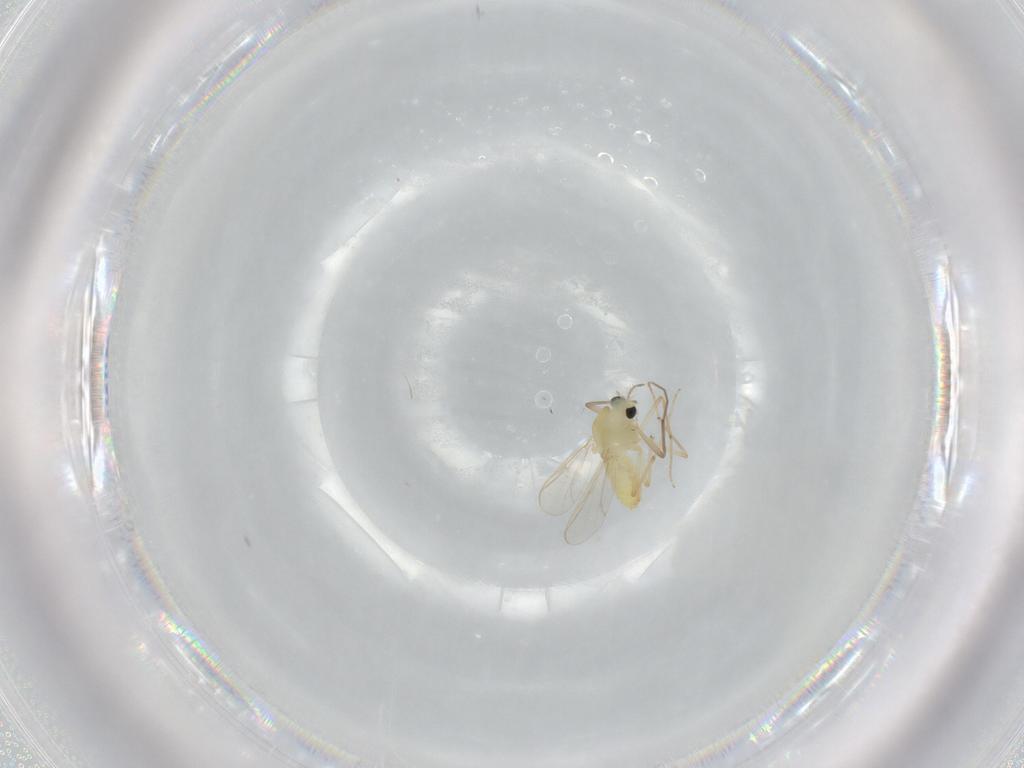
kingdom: Animalia
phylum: Arthropoda
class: Insecta
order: Diptera
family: Chironomidae
